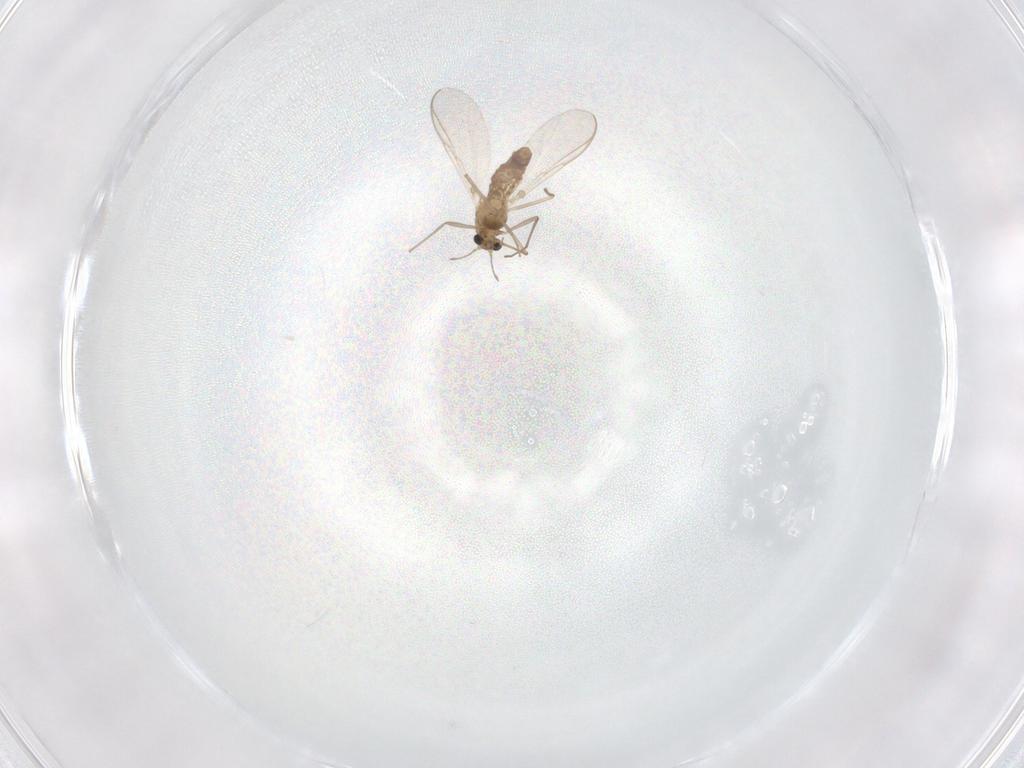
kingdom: Animalia
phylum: Arthropoda
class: Insecta
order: Diptera
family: Chironomidae
